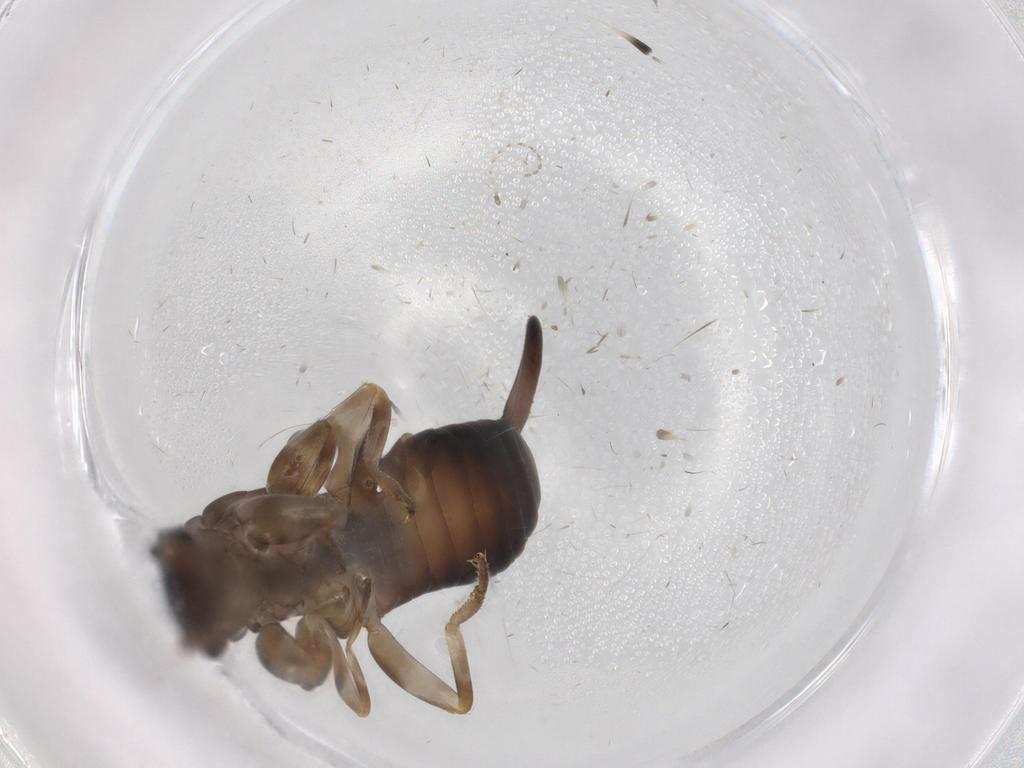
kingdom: Animalia
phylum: Arthropoda
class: Insecta
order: Dermaptera
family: Labiduridae
